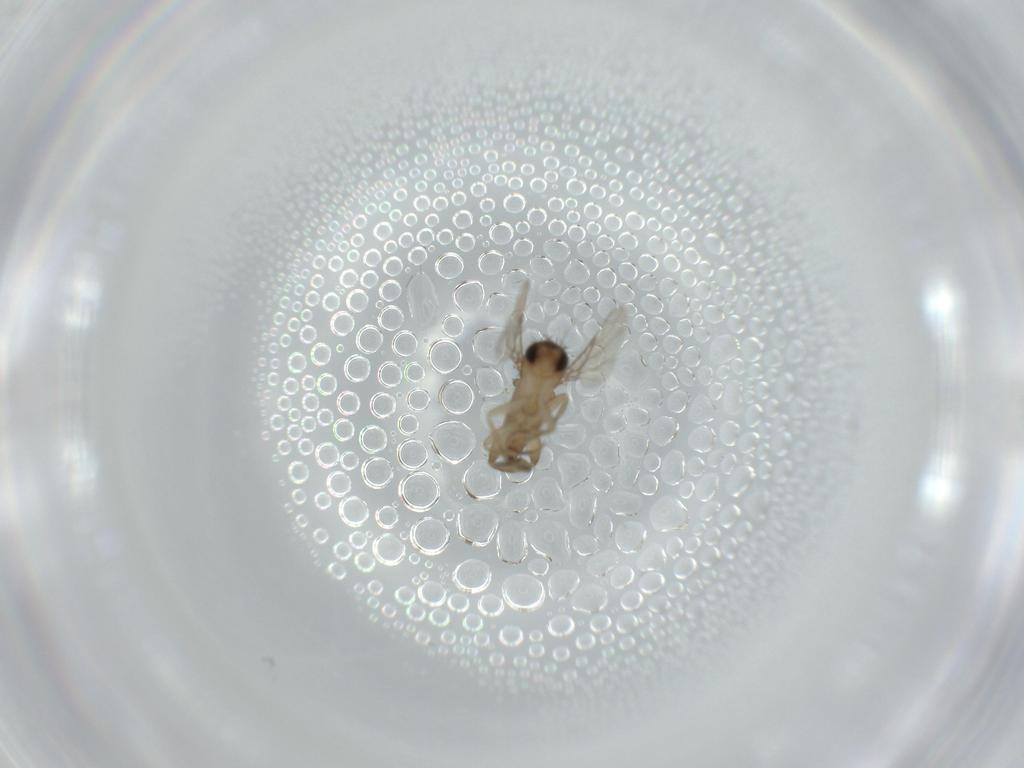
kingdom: Animalia
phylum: Arthropoda
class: Insecta
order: Diptera
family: Phoridae
